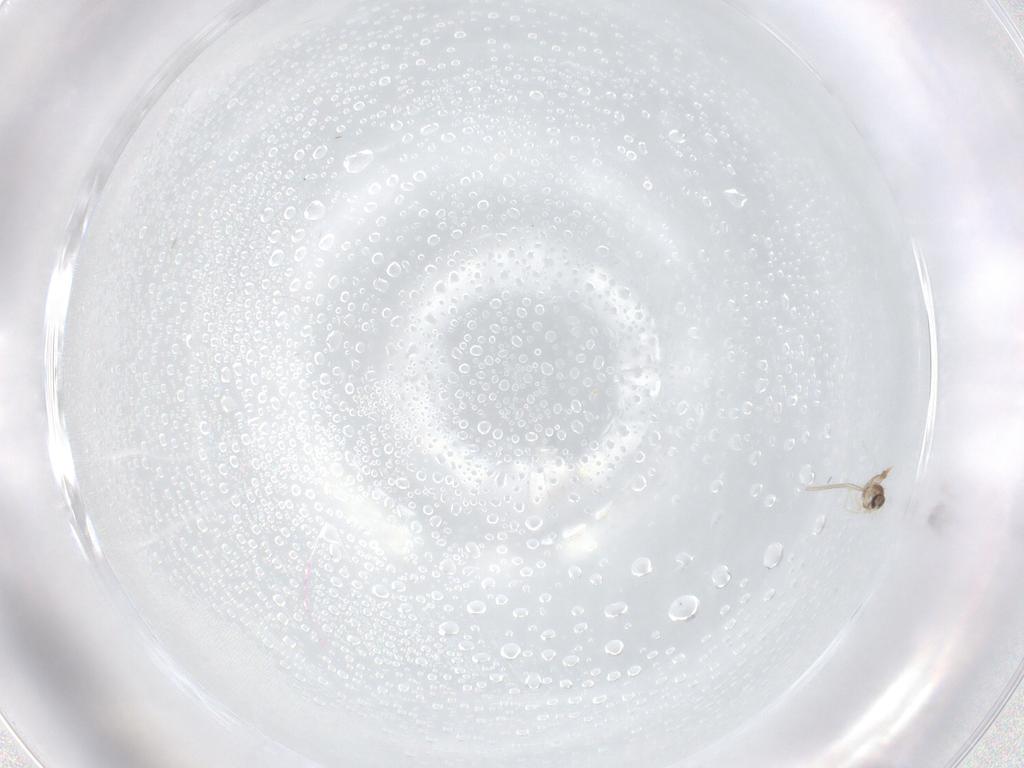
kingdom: Animalia
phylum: Arthropoda
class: Insecta
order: Diptera
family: Cecidomyiidae
